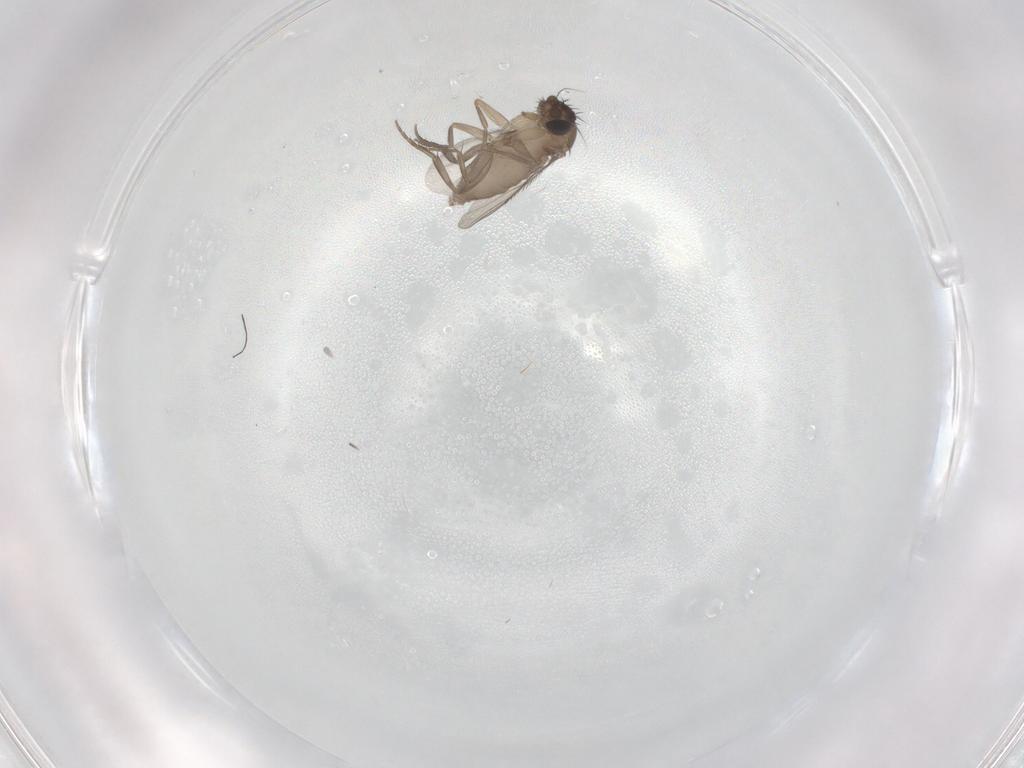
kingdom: Animalia
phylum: Arthropoda
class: Insecta
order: Diptera
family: Phoridae
